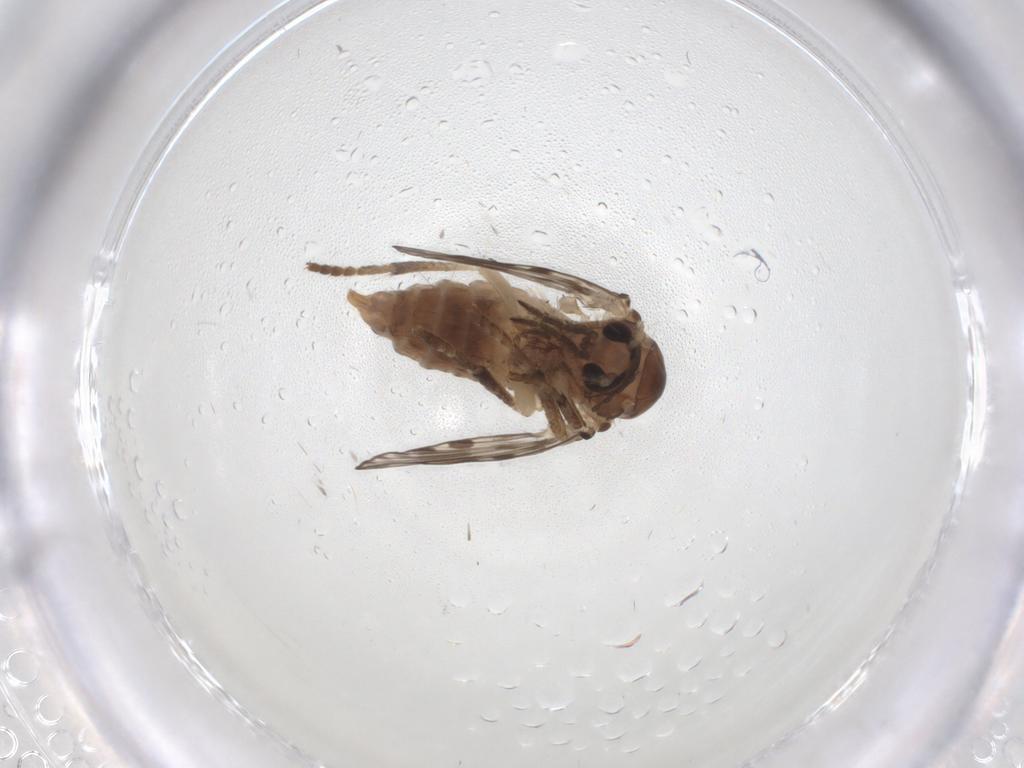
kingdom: Animalia
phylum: Arthropoda
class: Insecta
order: Diptera
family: Psychodidae
